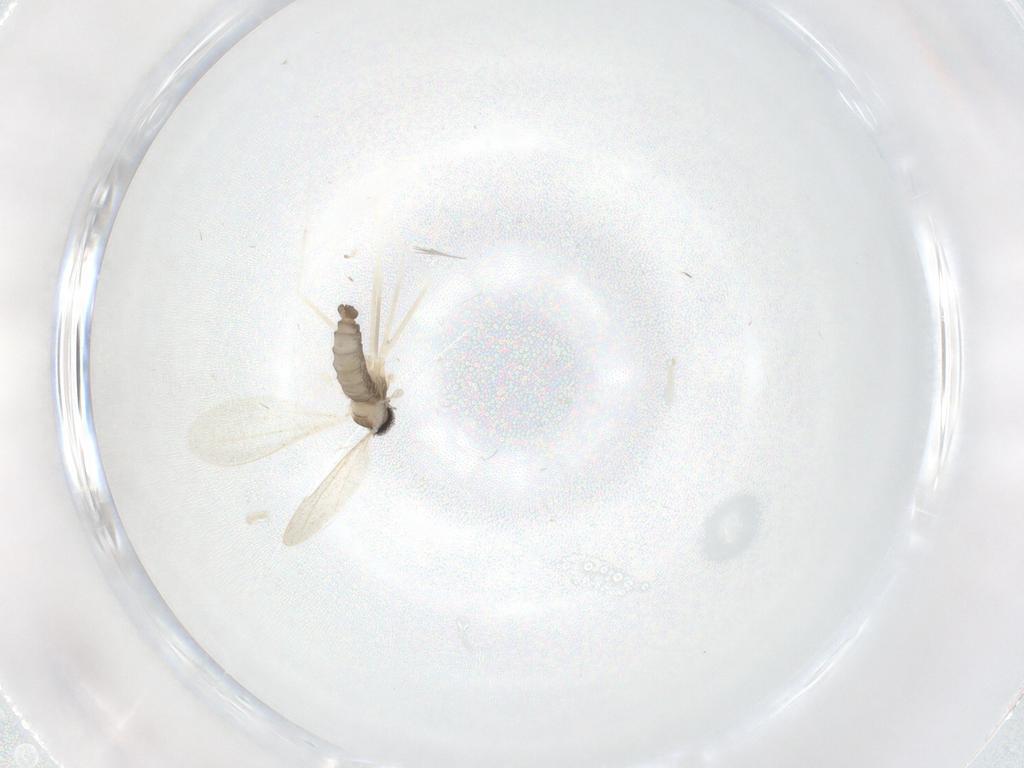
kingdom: Animalia
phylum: Arthropoda
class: Insecta
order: Diptera
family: Cecidomyiidae
